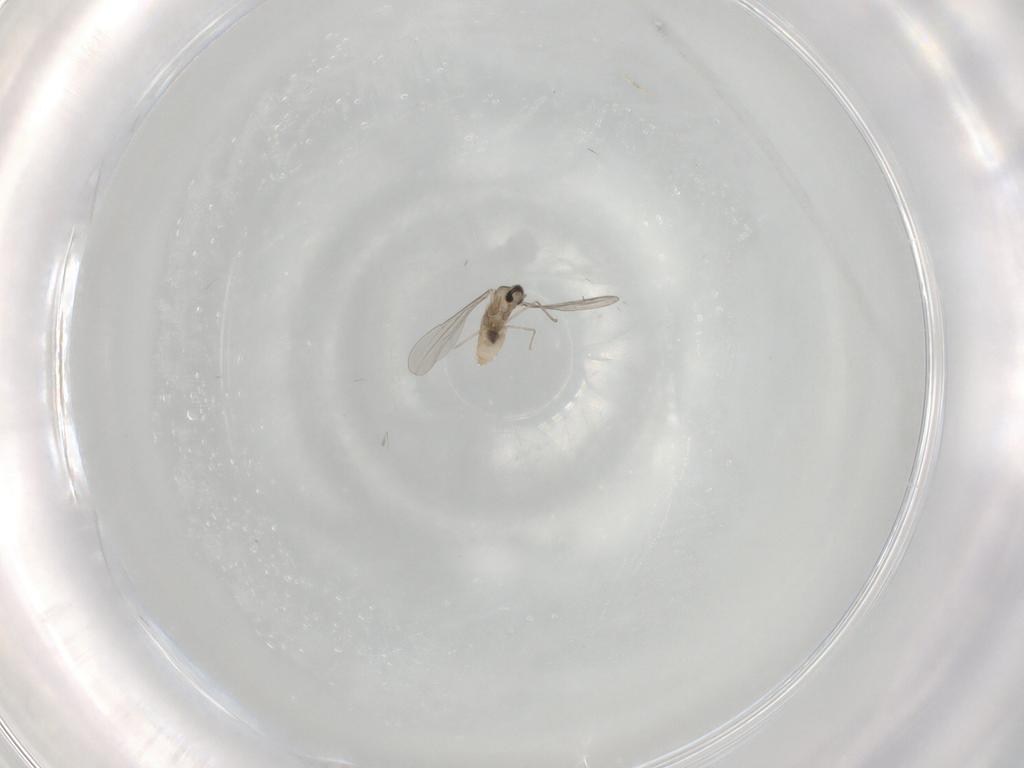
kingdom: Animalia
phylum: Arthropoda
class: Insecta
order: Diptera
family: Cecidomyiidae
